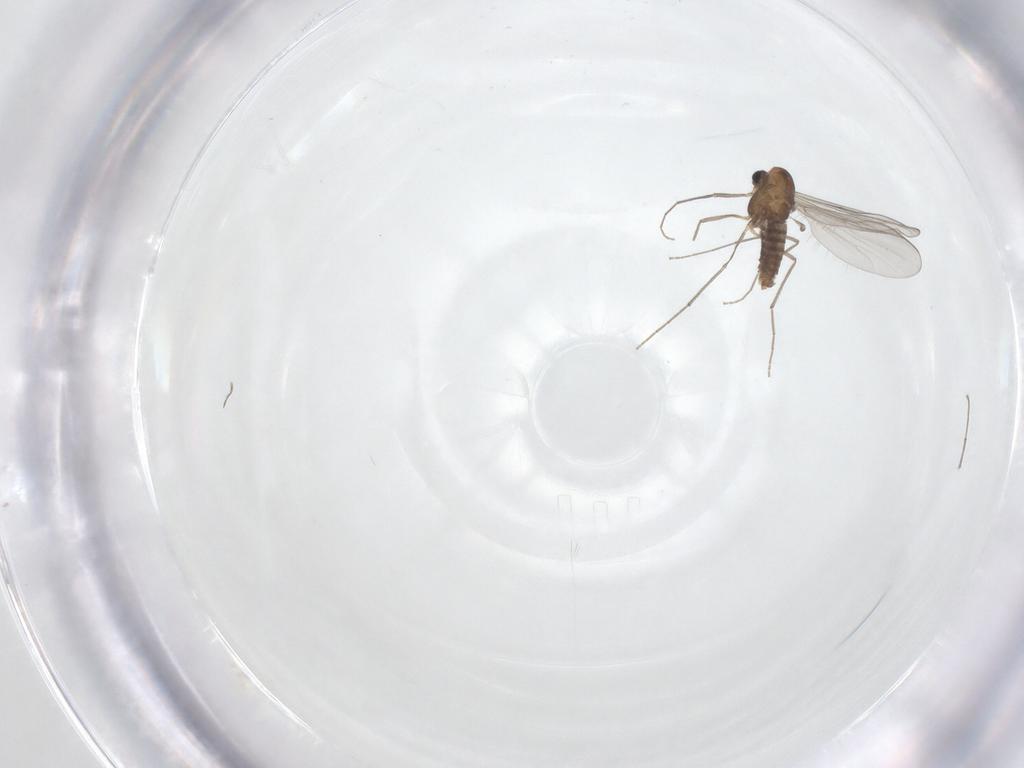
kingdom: Animalia
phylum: Arthropoda
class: Insecta
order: Diptera
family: Chironomidae
